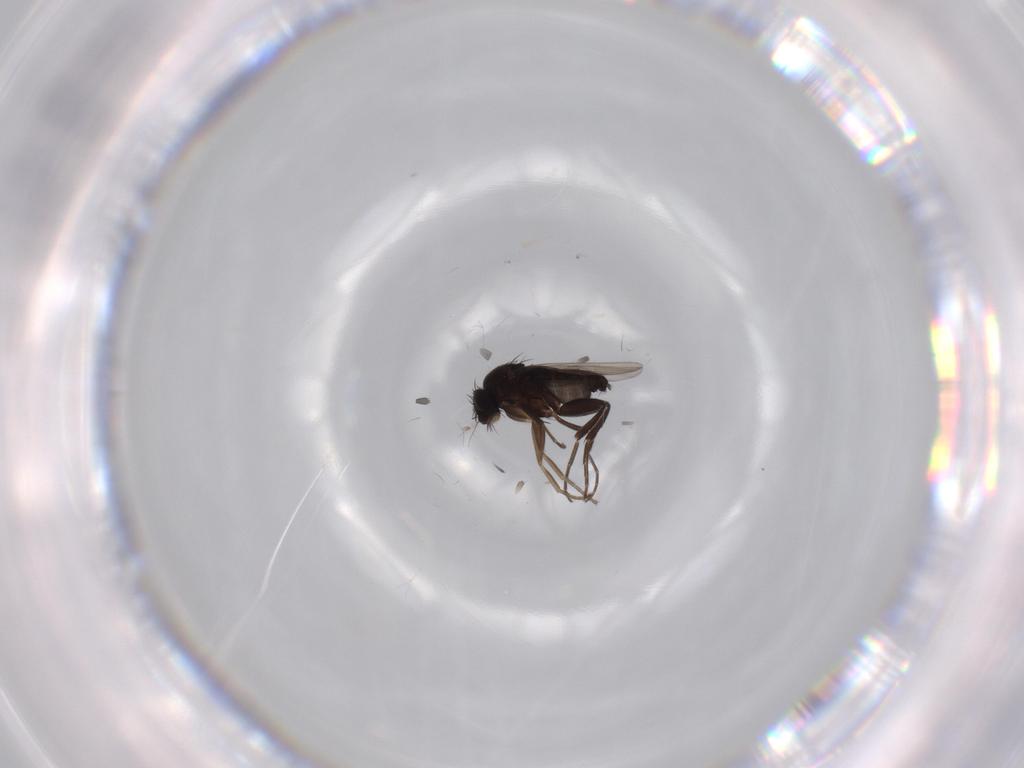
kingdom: Animalia
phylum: Arthropoda
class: Insecta
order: Diptera
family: Phoridae
